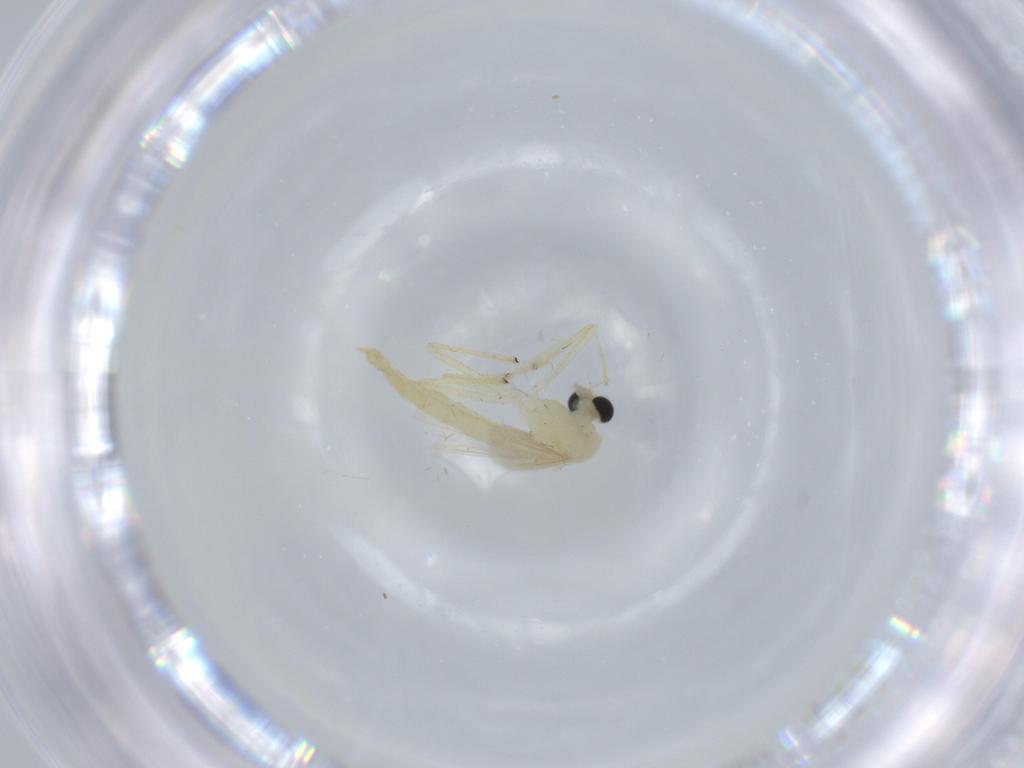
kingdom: Animalia
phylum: Arthropoda
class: Insecta
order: Diptera
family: Chironomidae
